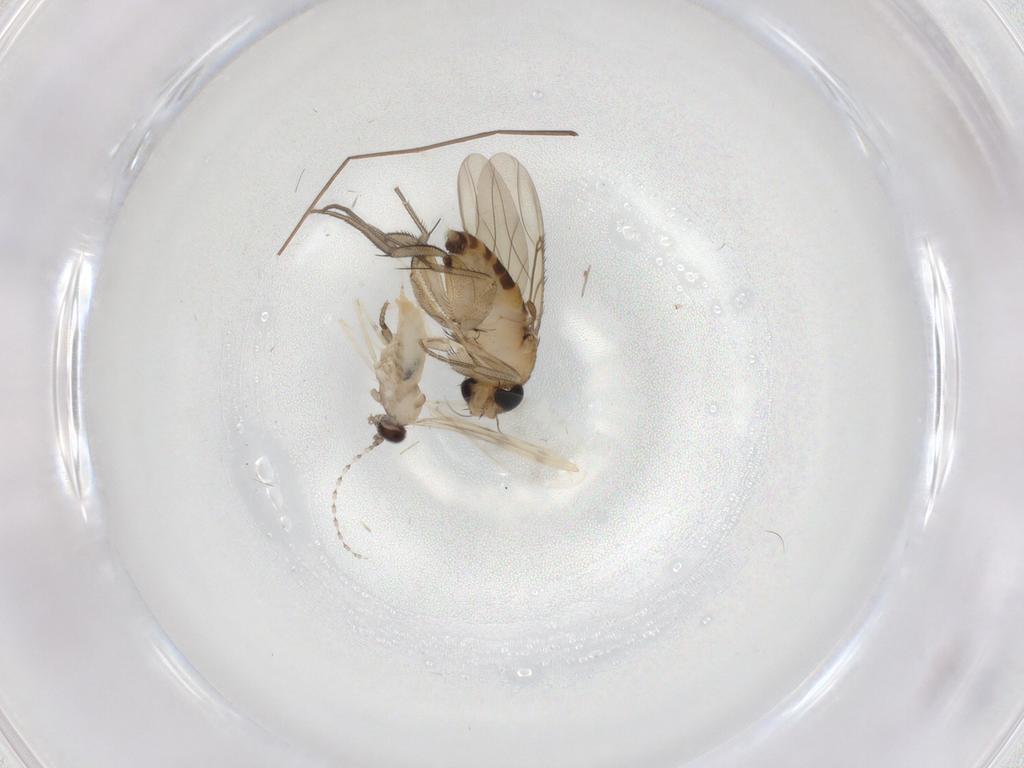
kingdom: Animalia
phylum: Arthropoda
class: Insecta
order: Diptera
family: Phoridae
